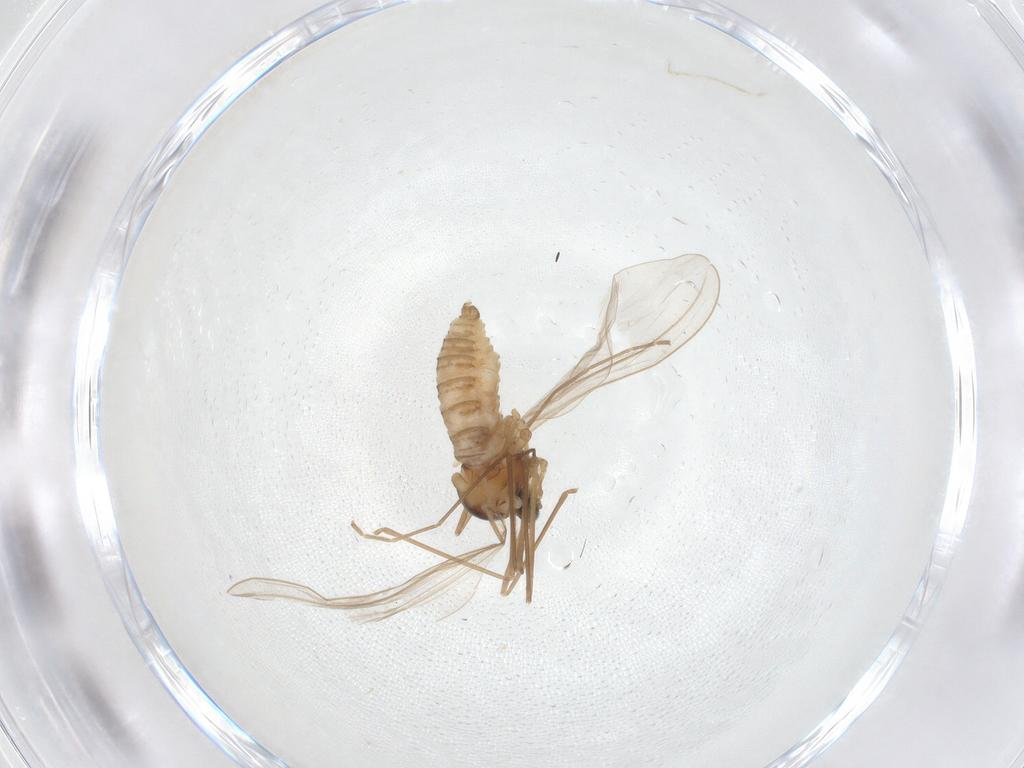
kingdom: Animalia
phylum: Arthropoda
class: Insecta
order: Diptera
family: Cecidomyiidae
